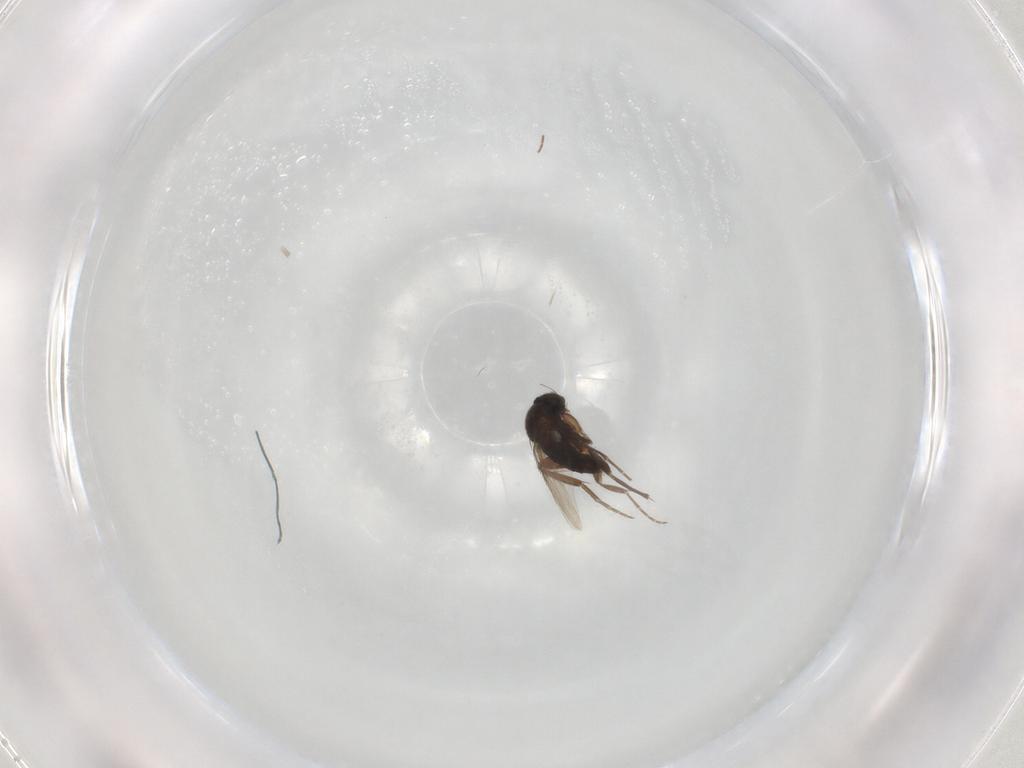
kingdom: Animalia
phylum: Arthropoda
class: Insecta
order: Diptera
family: Phoridae
